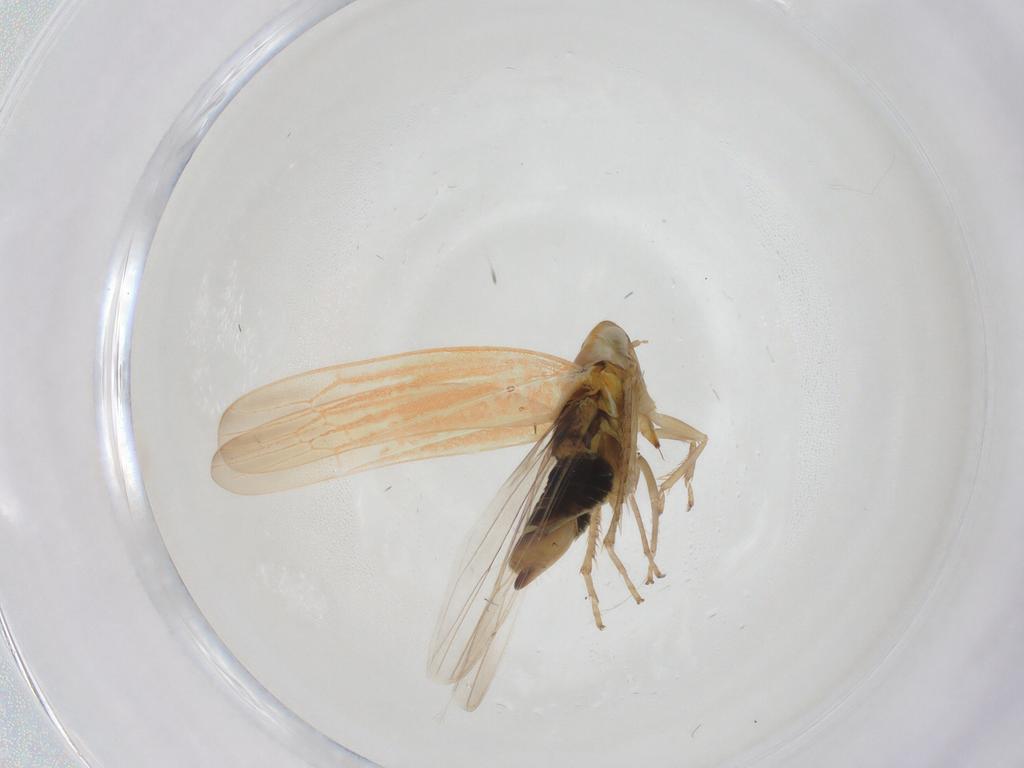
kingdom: Animalia
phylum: Arthropoda
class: Insecta
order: Hemiptera
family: Cicadellidae
